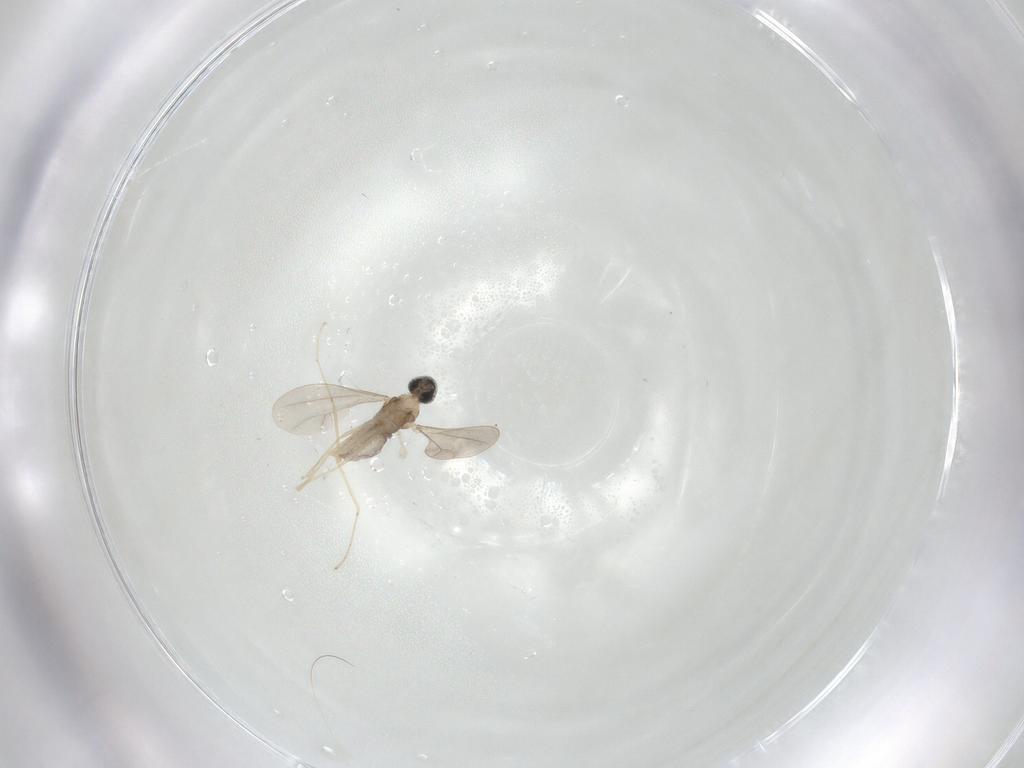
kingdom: Animalia
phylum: Arthropoda
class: Insecta
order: Diptera
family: Cecidomyiidae
